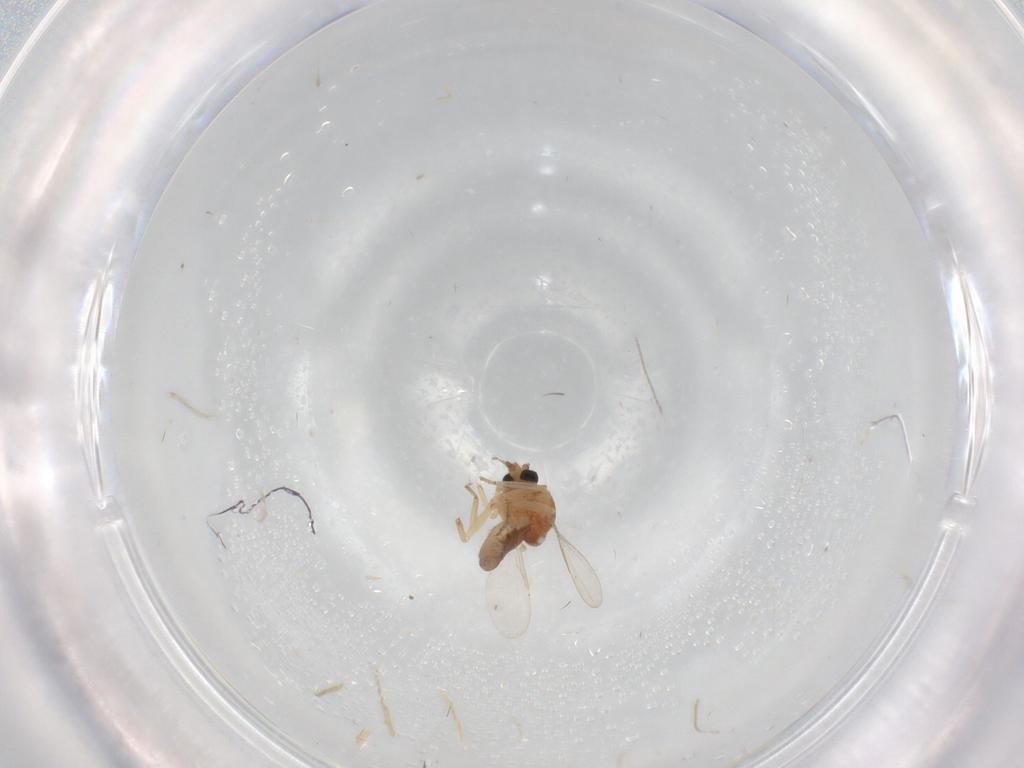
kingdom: Animalia
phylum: Arthropoda
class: Insecta
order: Diptera
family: Muscidae
